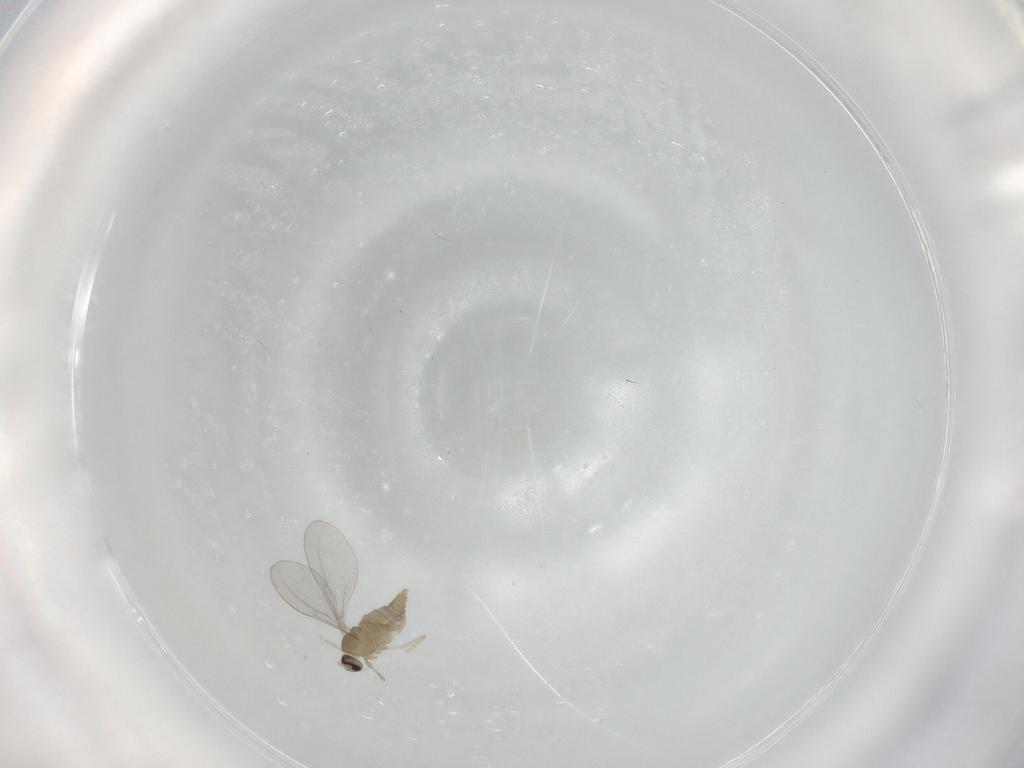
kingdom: Animalia
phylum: Arthropoda
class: Insecta
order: Diptera
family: Cecidomyiidae
